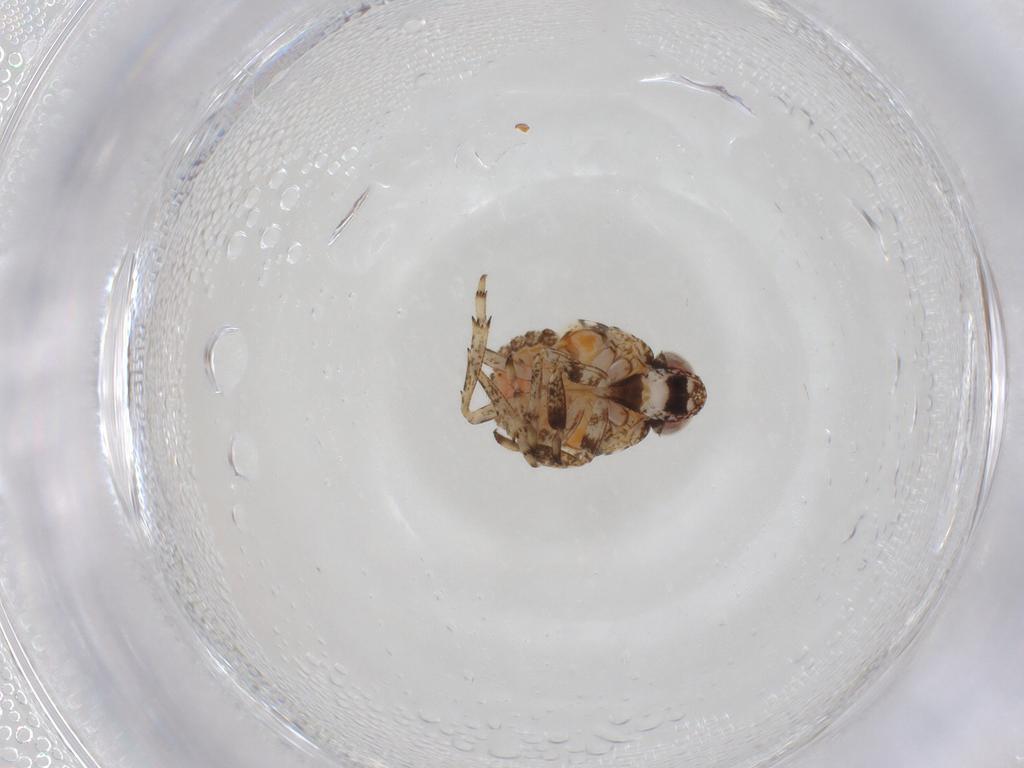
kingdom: Animalia
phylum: Arthropoda
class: Insecta
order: Hemiptera
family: Issidae
